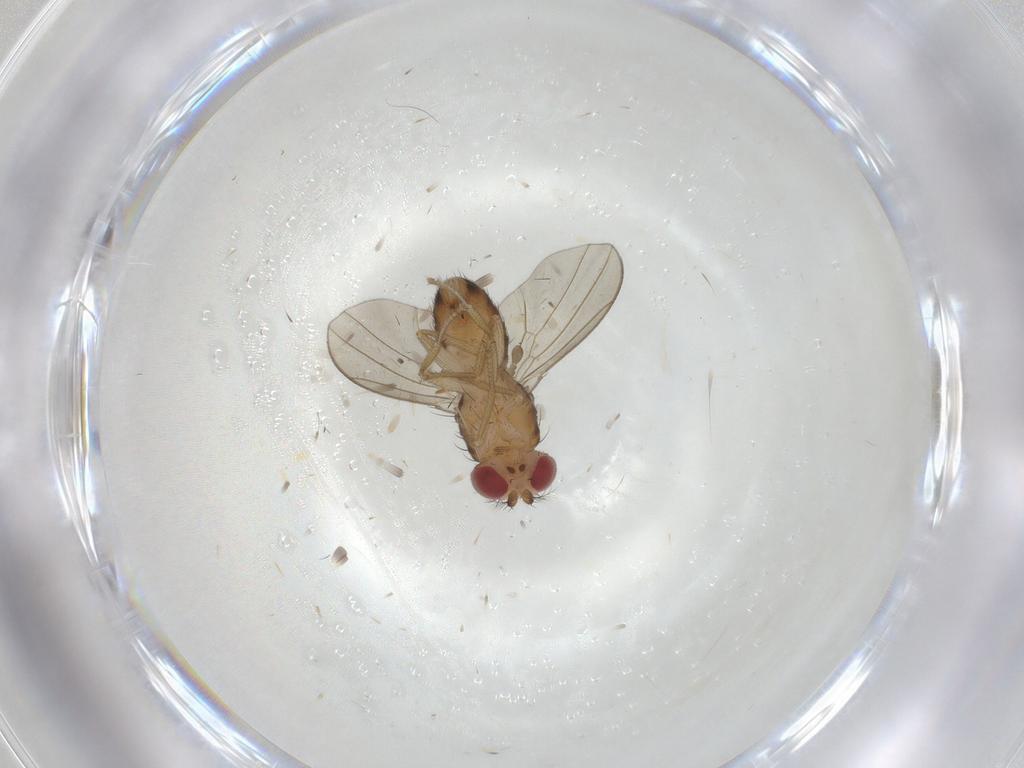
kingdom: Animalia
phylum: Arthropoda
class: Insecta
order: Diptera
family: Drosophilidae
